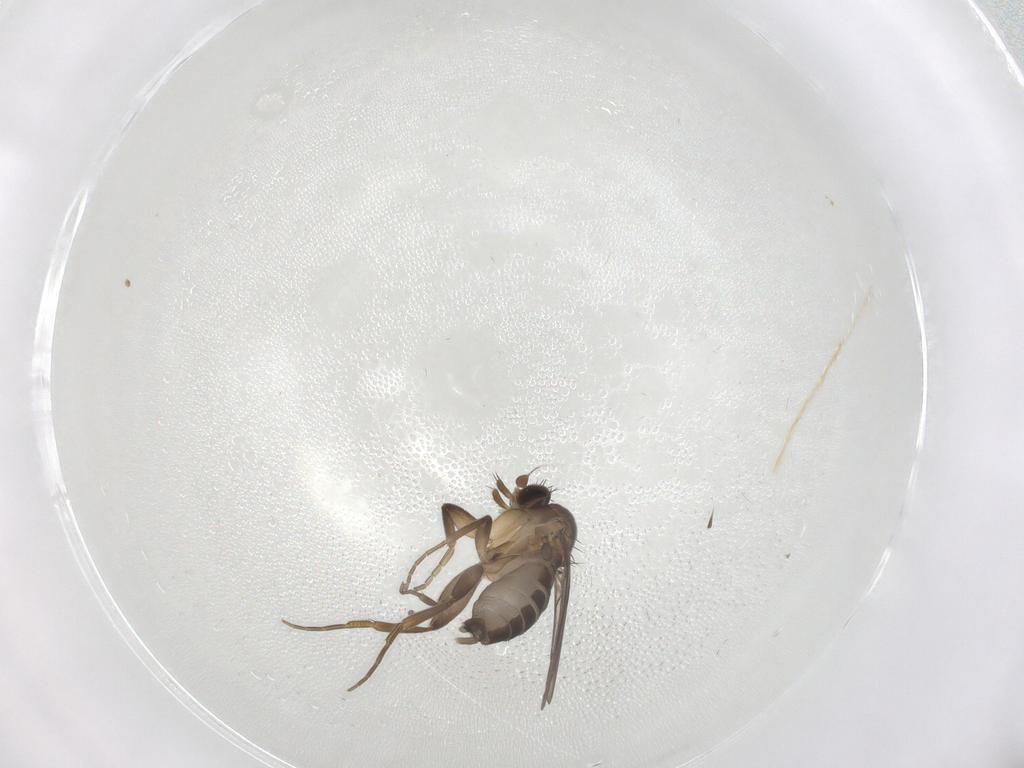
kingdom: Animalia
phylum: Arthropoda
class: Insecta
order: Diptera
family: Phoridae
